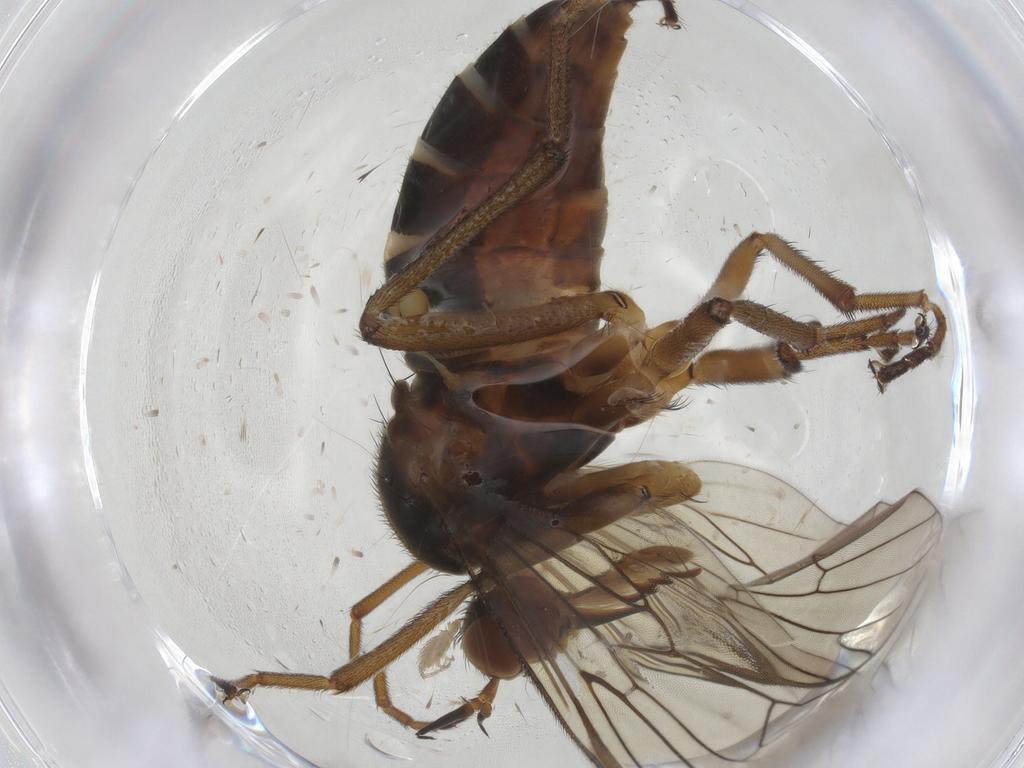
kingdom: Animalia
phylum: Arthropoda
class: Insecta
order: Diptera
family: Empididae
